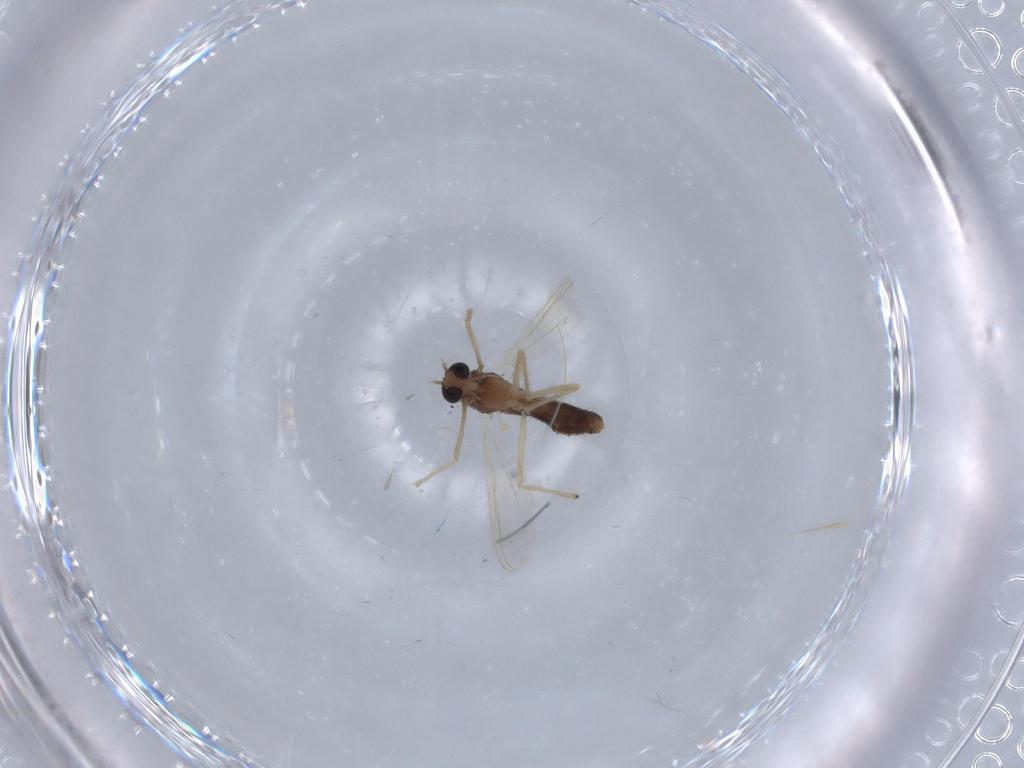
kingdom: Animalia
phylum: Arthropoda
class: Insecta
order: Diptera
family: Chironomidae
